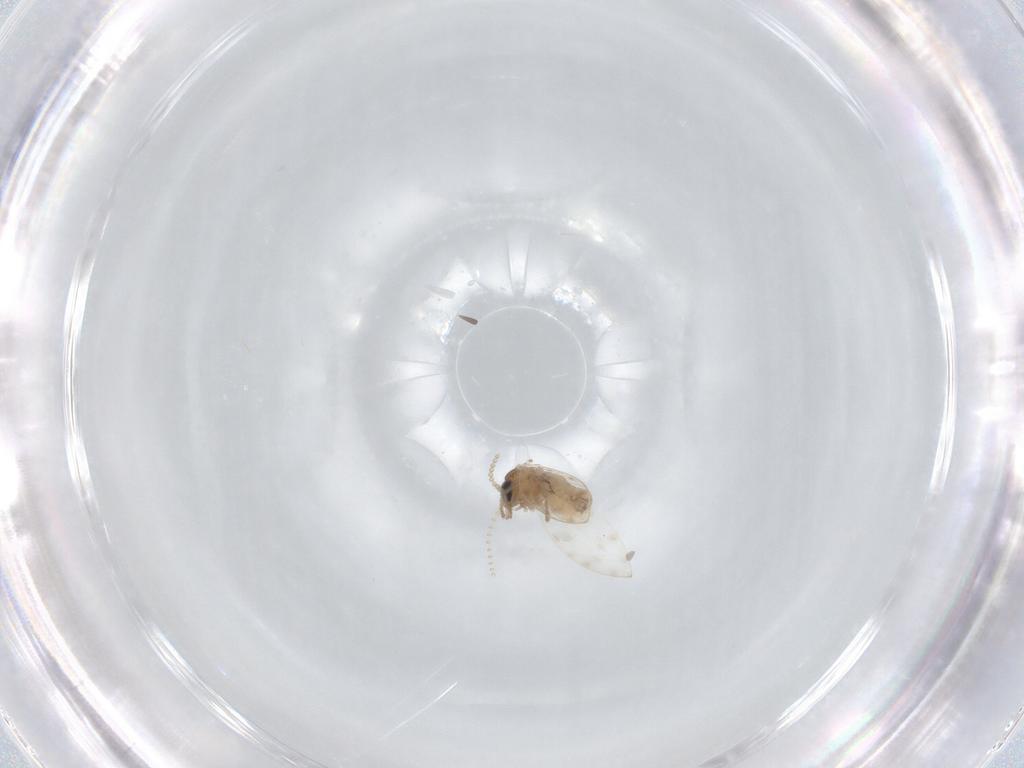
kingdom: Animalia
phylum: Arthropoda
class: Insecta
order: Diptera
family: Psychodidae
